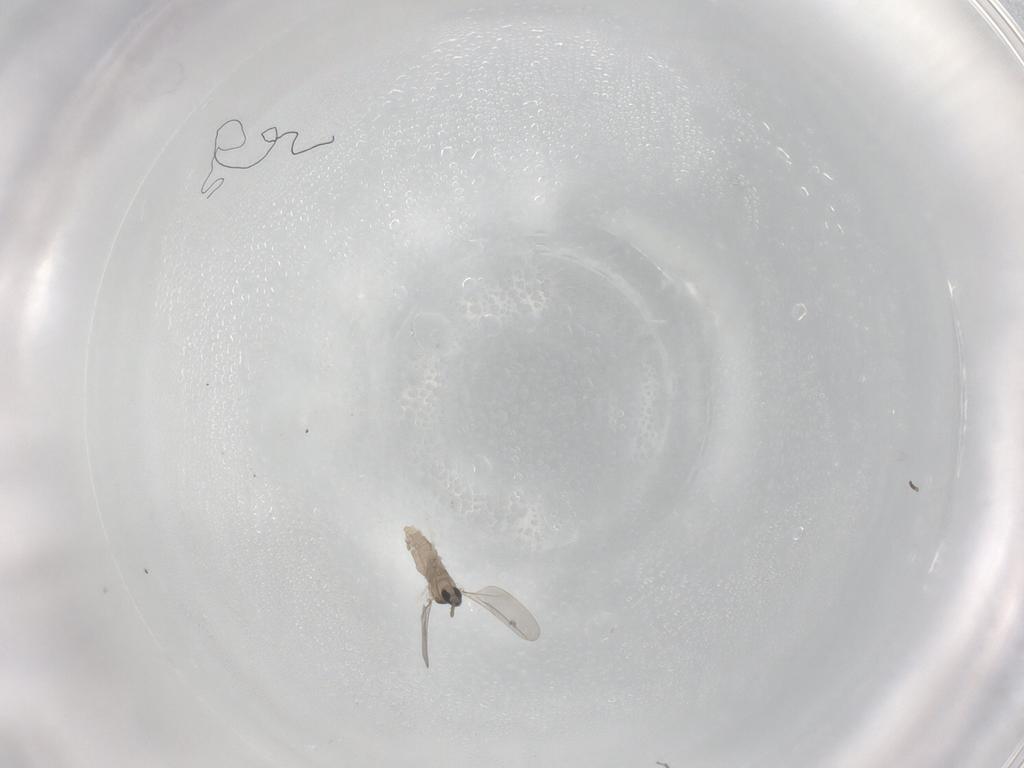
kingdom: Animalia
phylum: Arthropoda
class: Insecta
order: Diptera
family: Cecidomyiidae
